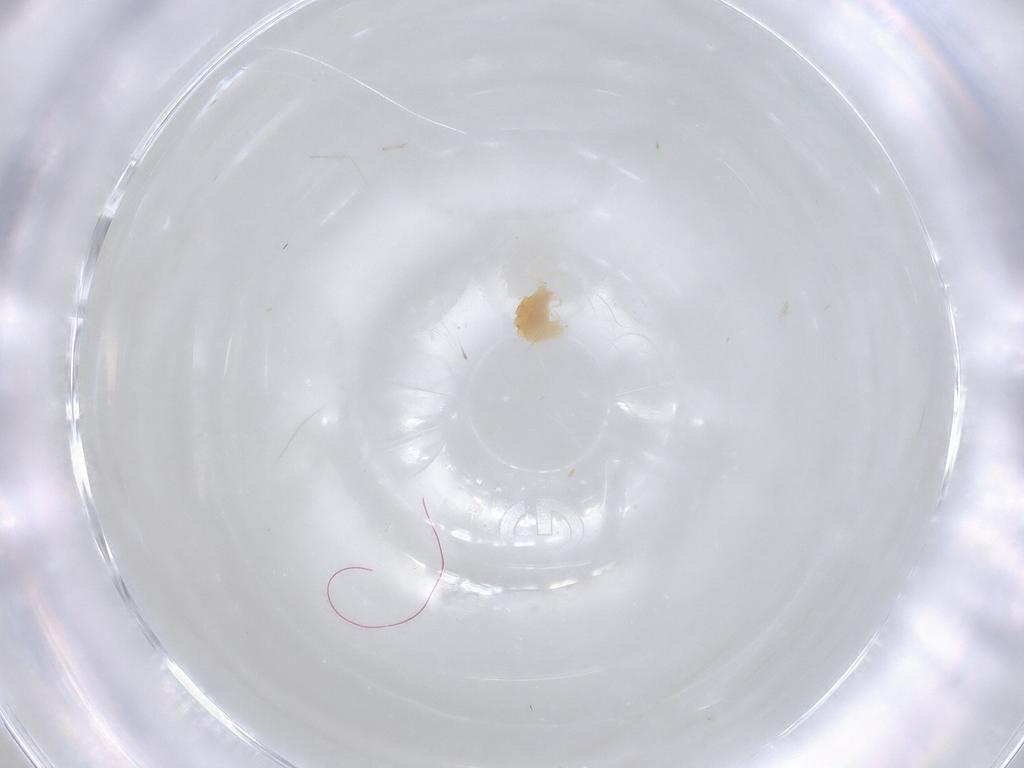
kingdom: Animalia
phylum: Arthropoda
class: Arachnida
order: Trombidiformes
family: Tetranychidae
